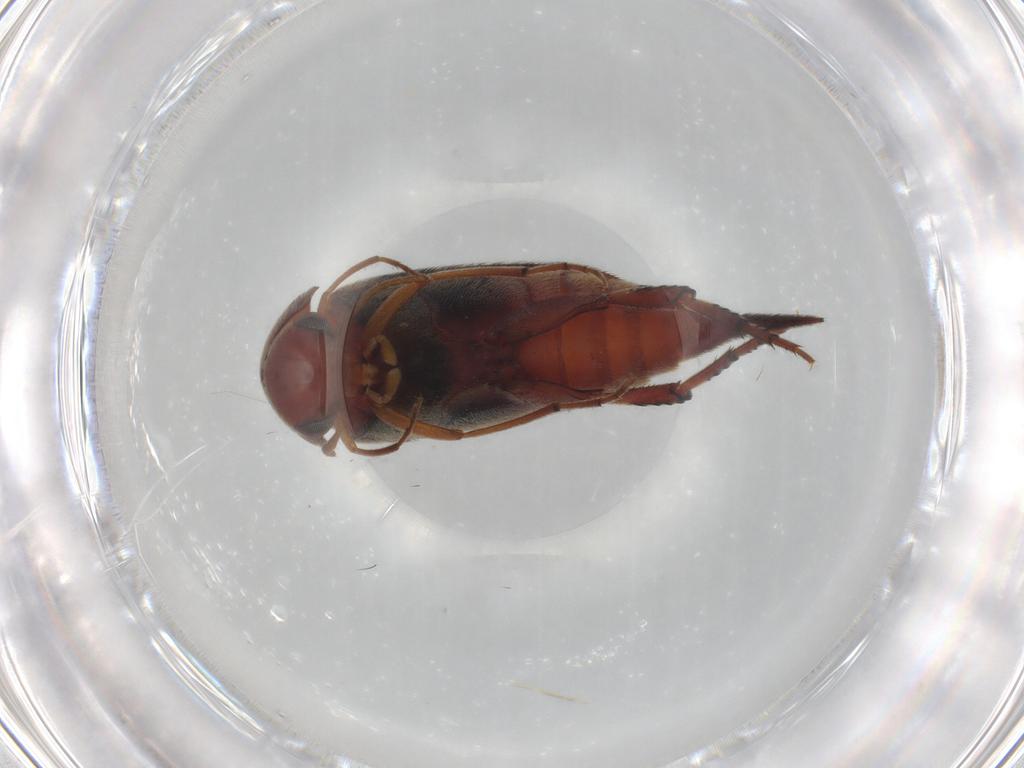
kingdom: Animalia
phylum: Arthropoda
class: Insecta
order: Coleoptera
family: Mordellidae
